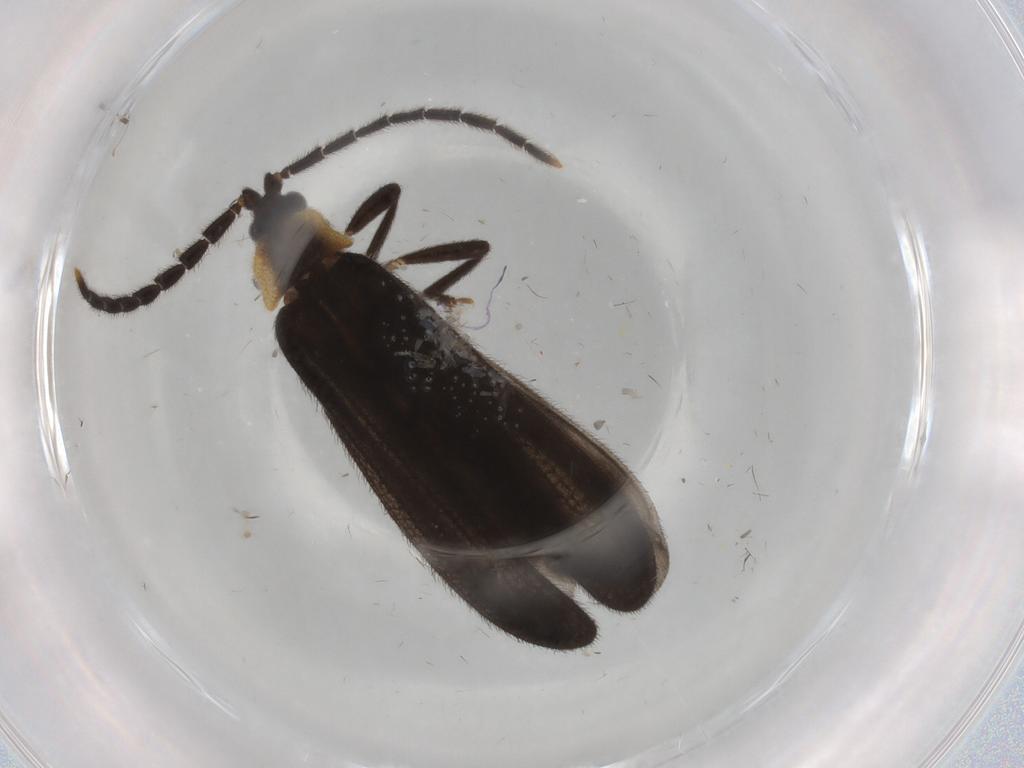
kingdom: Animalia
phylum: Arthropoda
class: Insecta
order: Coleoptera
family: Lycidae
